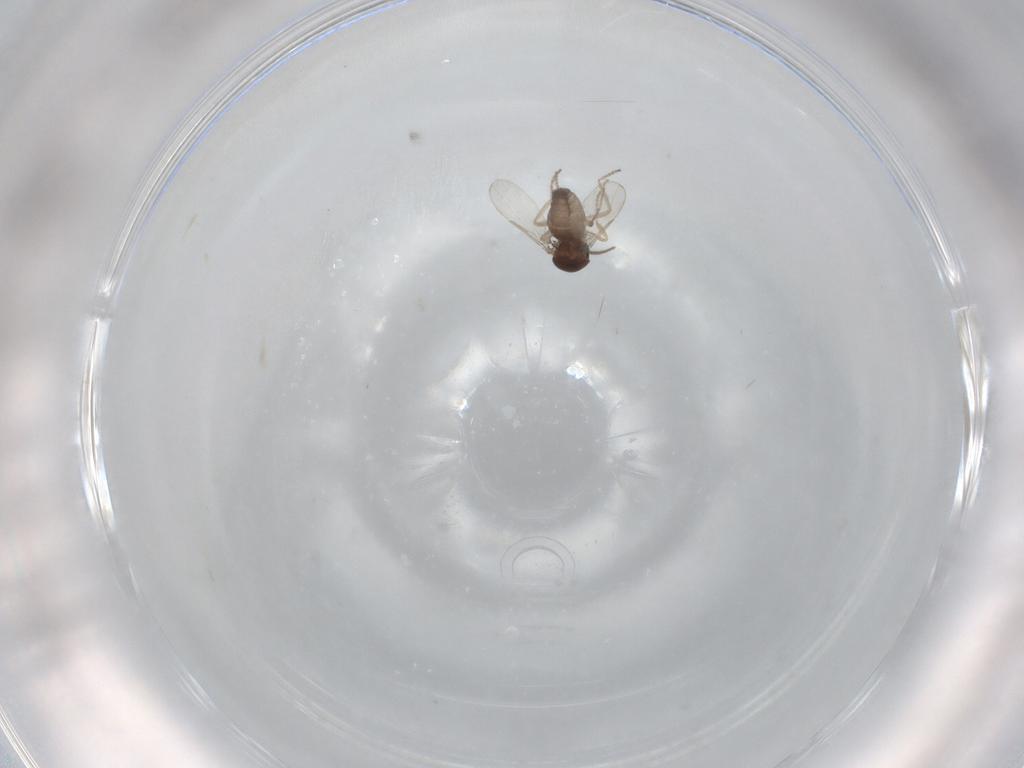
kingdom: Animalia
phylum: Arthropoda
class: Insecta
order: Diptera
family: Ceratopogonidae
